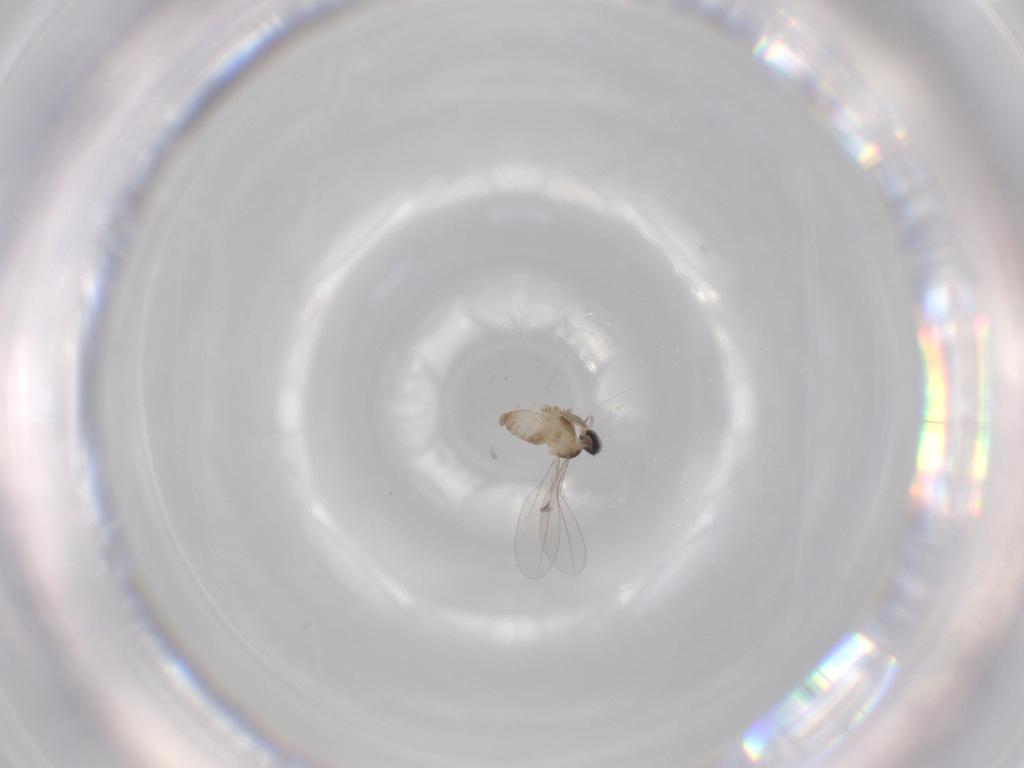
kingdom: Animalia
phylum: Arthropoda
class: Insecta
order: Diptera
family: Cecidomyiidae
